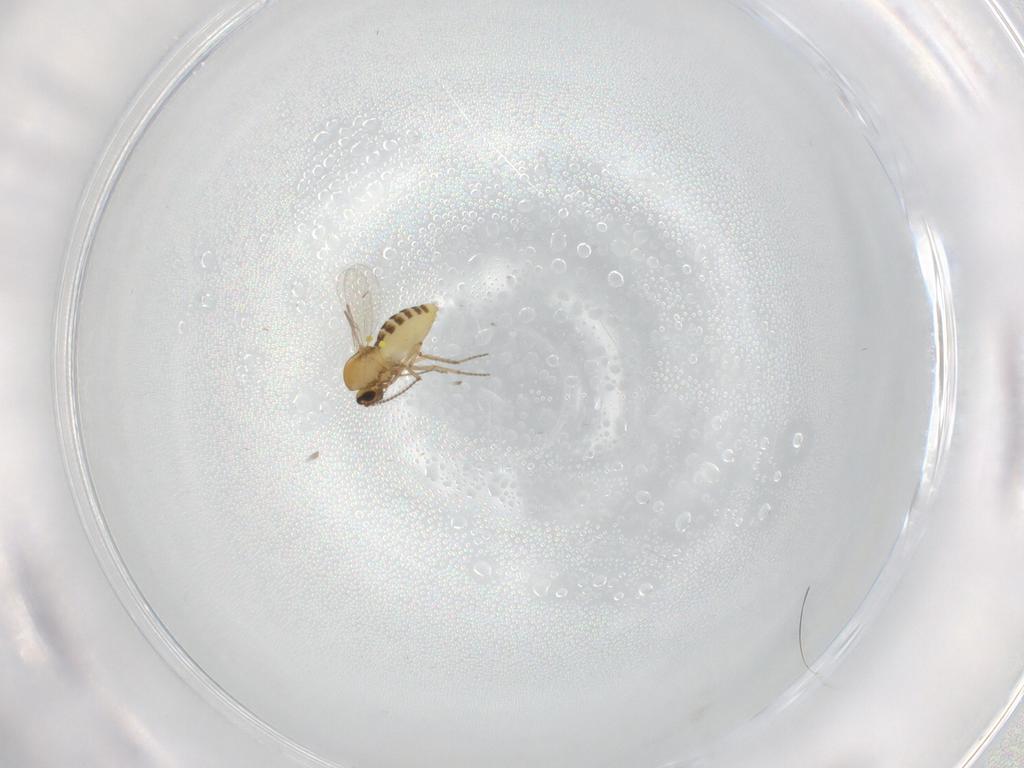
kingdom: Animalia
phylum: Arthropoda
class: Insecta
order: Diptera
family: Ceratopogonidae
